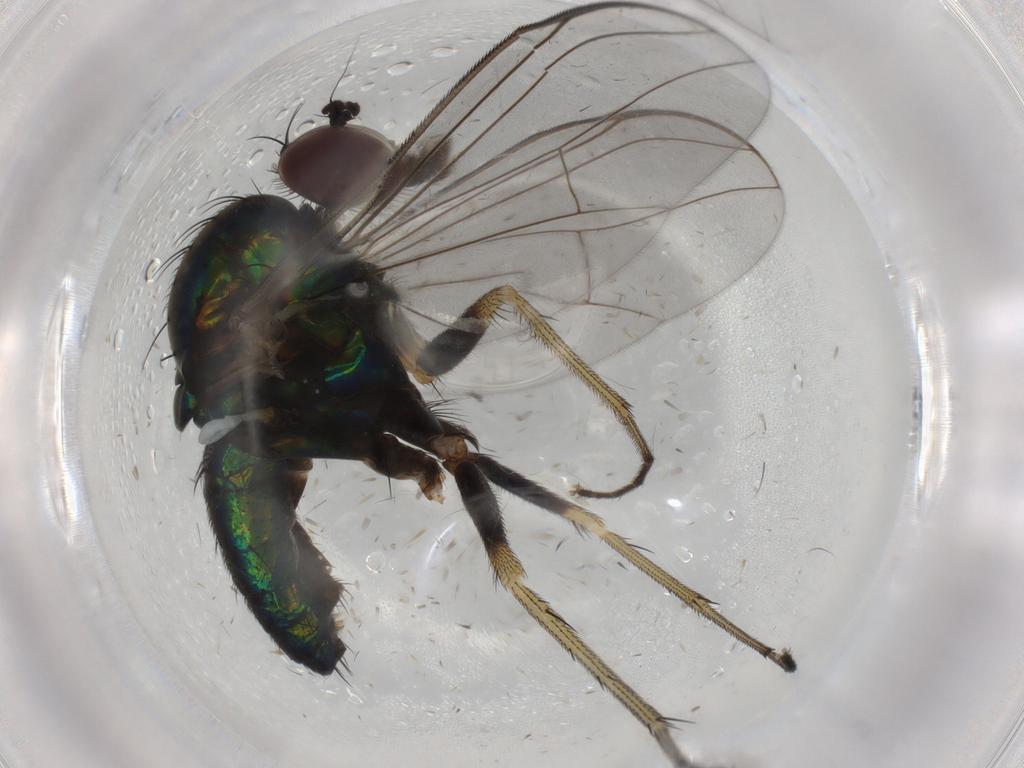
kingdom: Animalia
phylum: Arthropoda
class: Insecta
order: Diptera
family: Dolichopodidae
